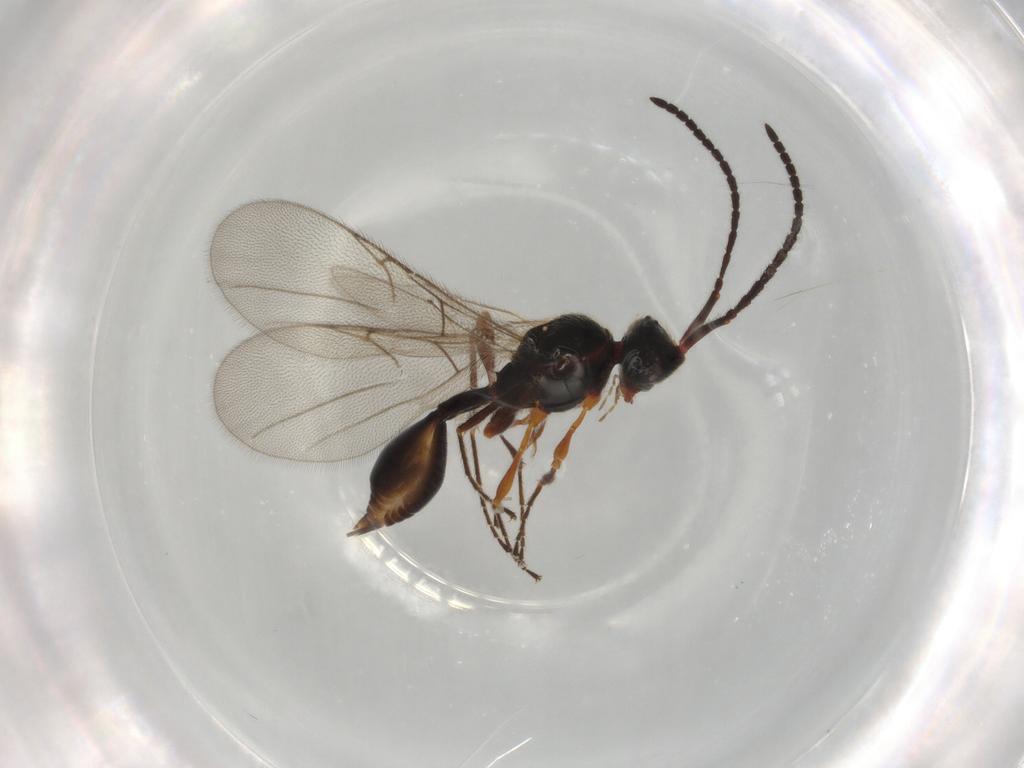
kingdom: Animalia
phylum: Arthropoda
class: Insecta
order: Hymenoptera
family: Diapriidae
